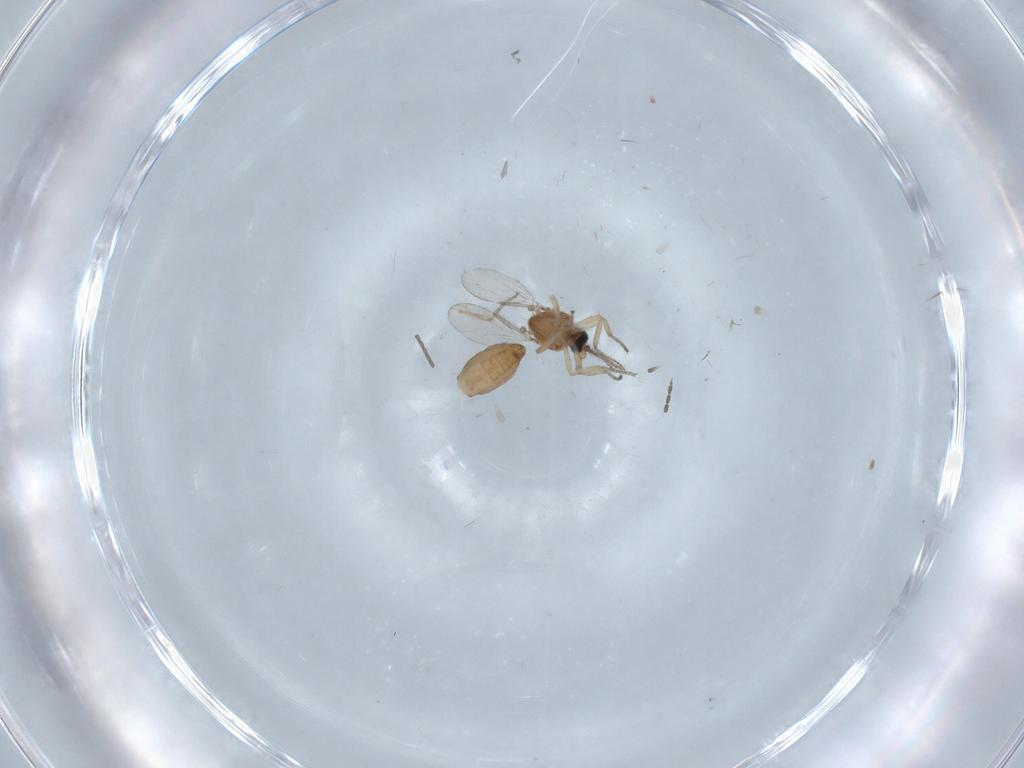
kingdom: Animalia
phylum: Arthropoda
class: Insecta
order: Diptera
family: Ceratopogonidae
